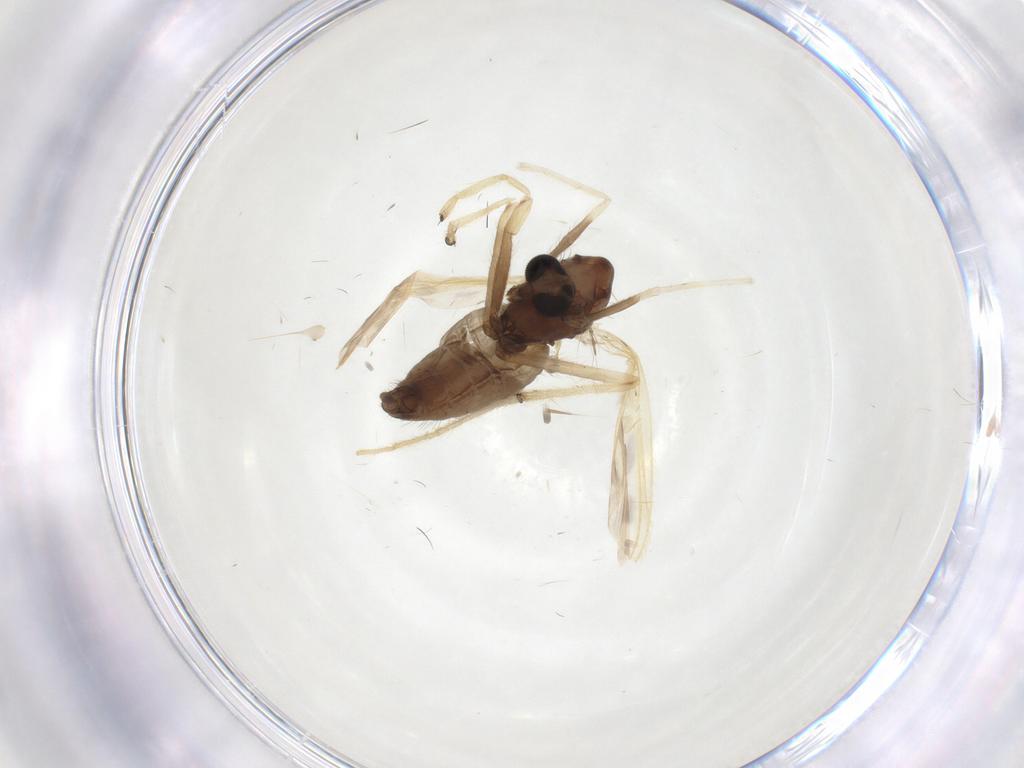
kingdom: Animalia
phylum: Arthropoda
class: Insecta
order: Diptera
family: Chironomidae
